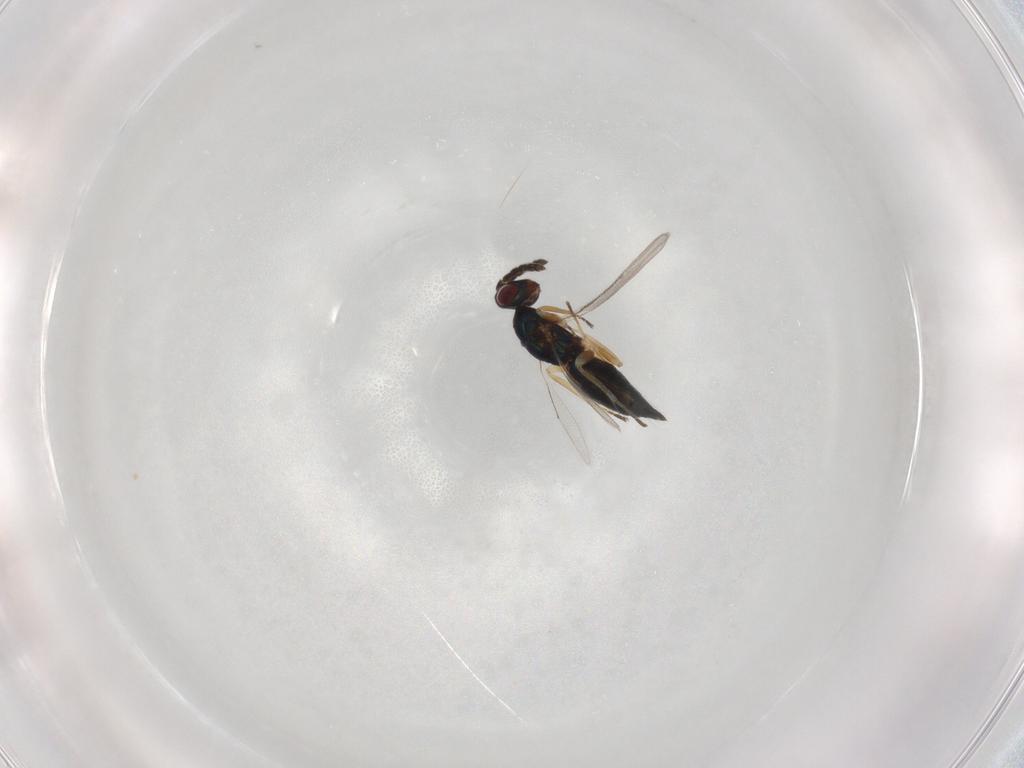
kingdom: Animalia
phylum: Arthropoda
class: Insecta
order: Hymenoptera
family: Eulophidae
